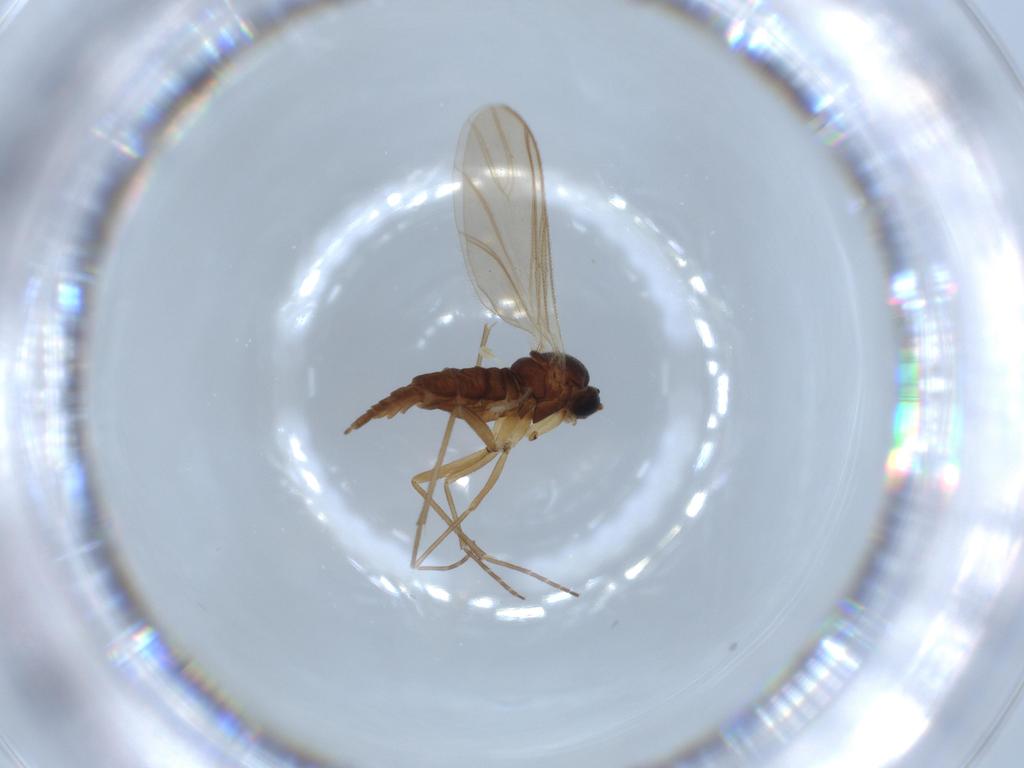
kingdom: Animalia
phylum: Arthropoda
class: Insecta
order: Diptera
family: Sciaridae
